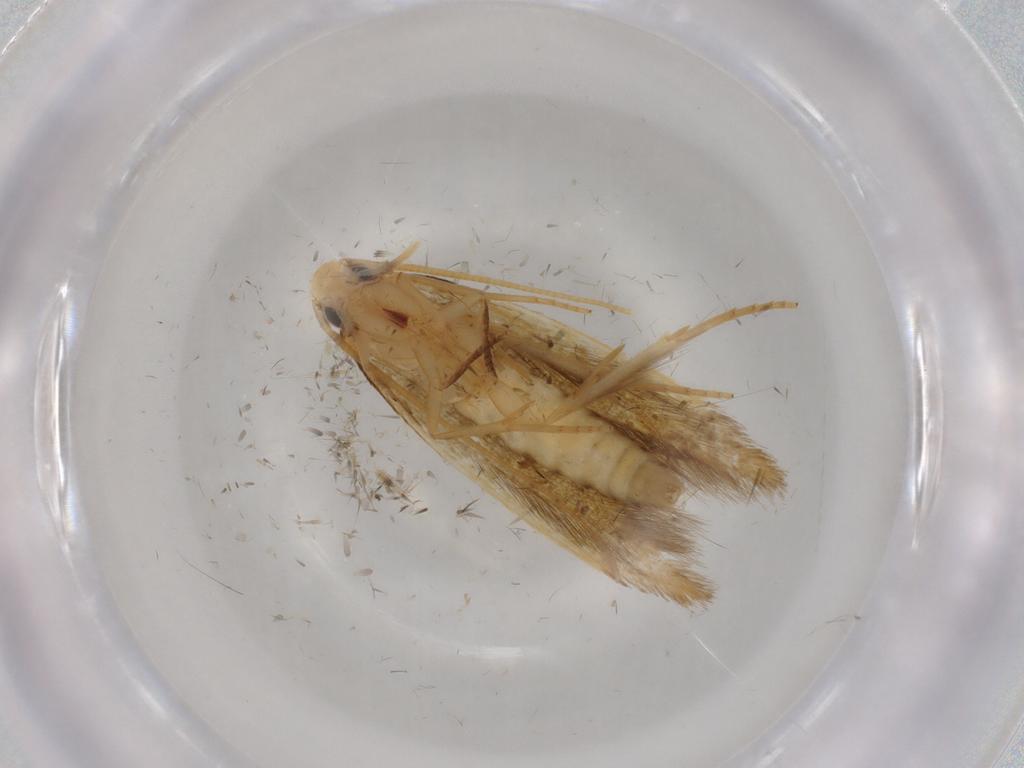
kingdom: Animalia
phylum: Arthropoda
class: Insecta
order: Lepidoptera
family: Tineidae
